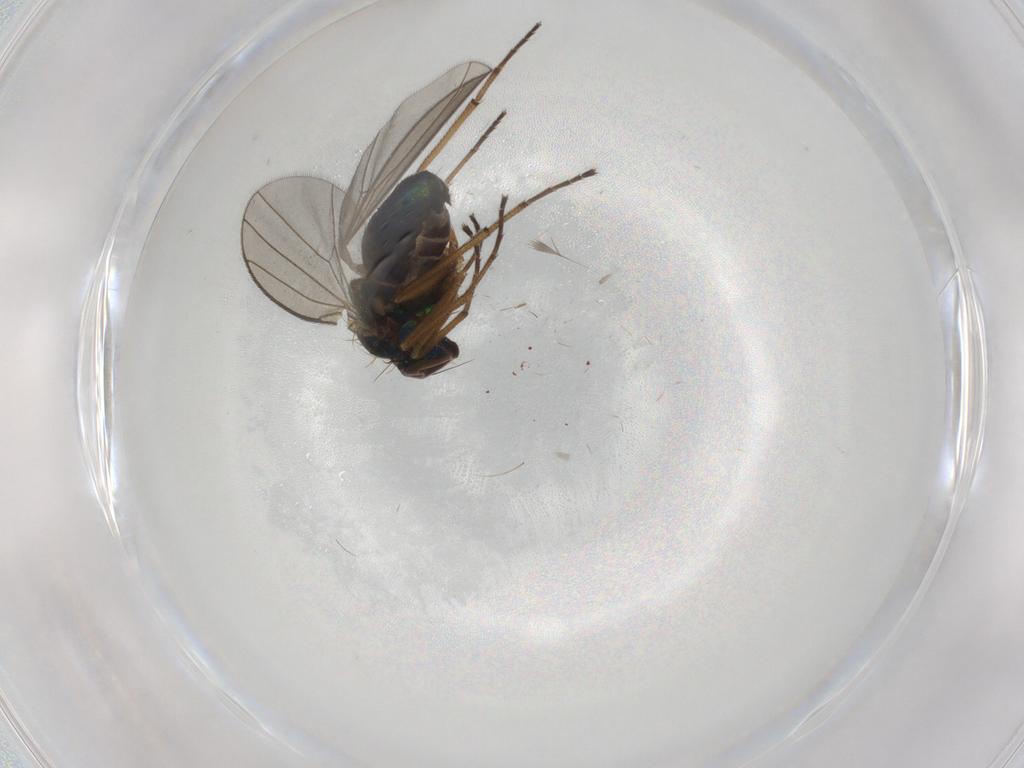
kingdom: Animalia
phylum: Arthropoda
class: Insecta
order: Diptera
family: Dolichopodidae
